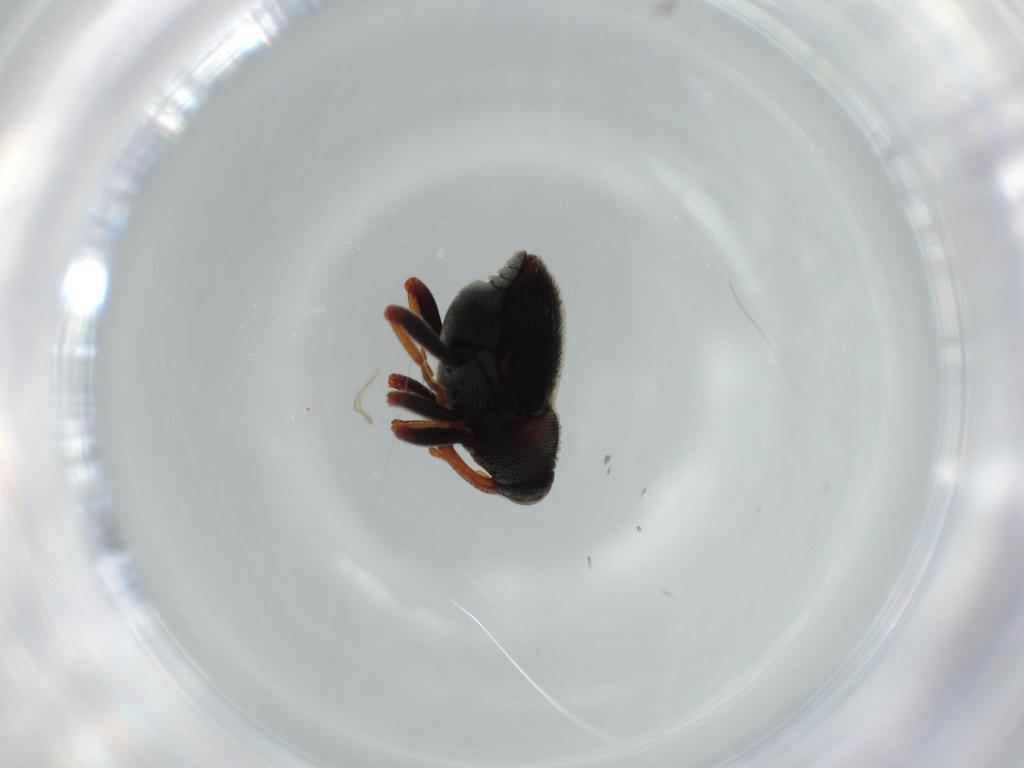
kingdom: Animalia
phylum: Arthropoda
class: Insecta
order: Coleoptera
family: Curculionidae
